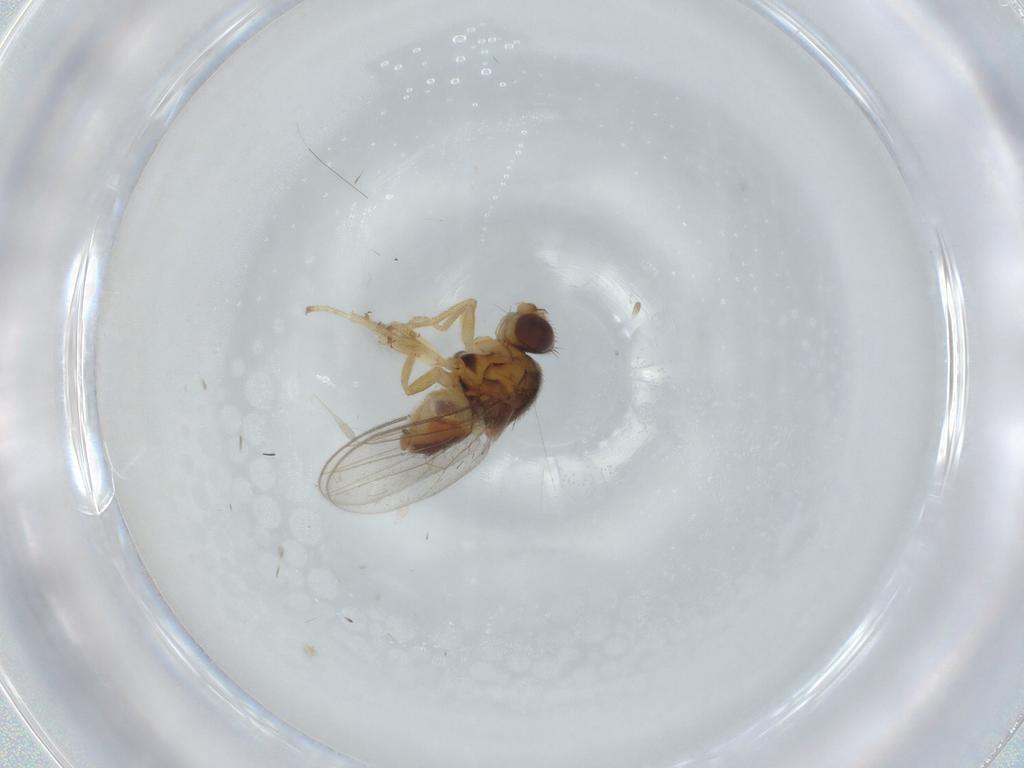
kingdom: Animalia
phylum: Arthropoda
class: Insecta
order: Diptera
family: Chloropidae
